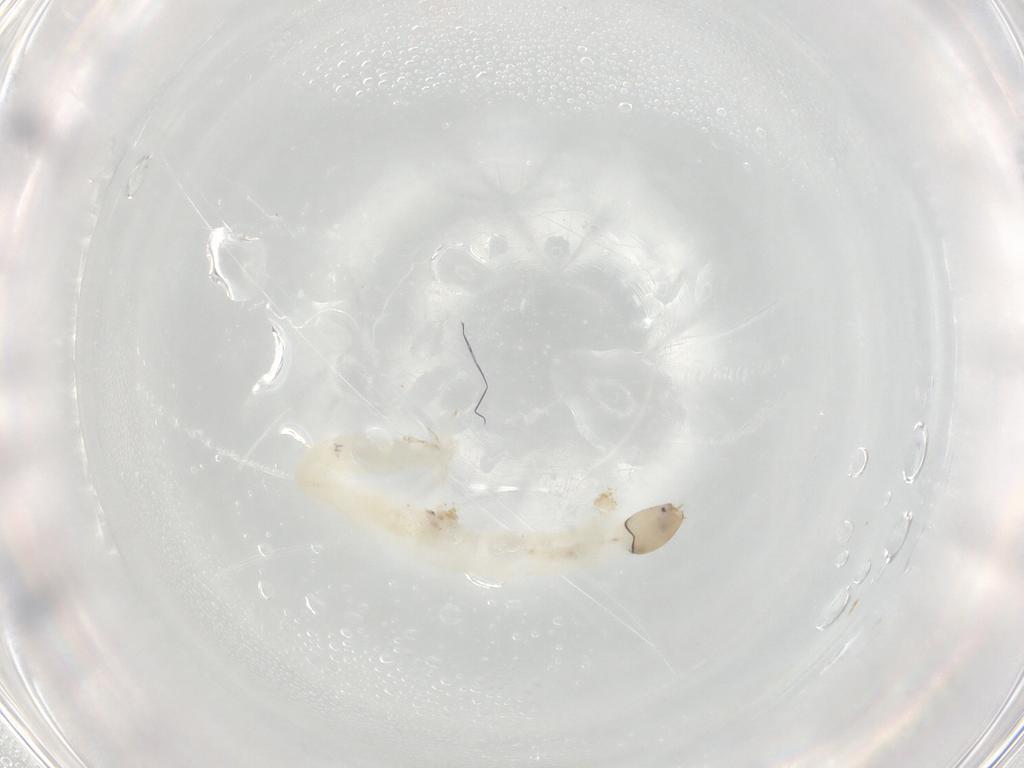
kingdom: Animalia
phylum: Arthropoda
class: Insecta
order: Diptera
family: Chironomidae
